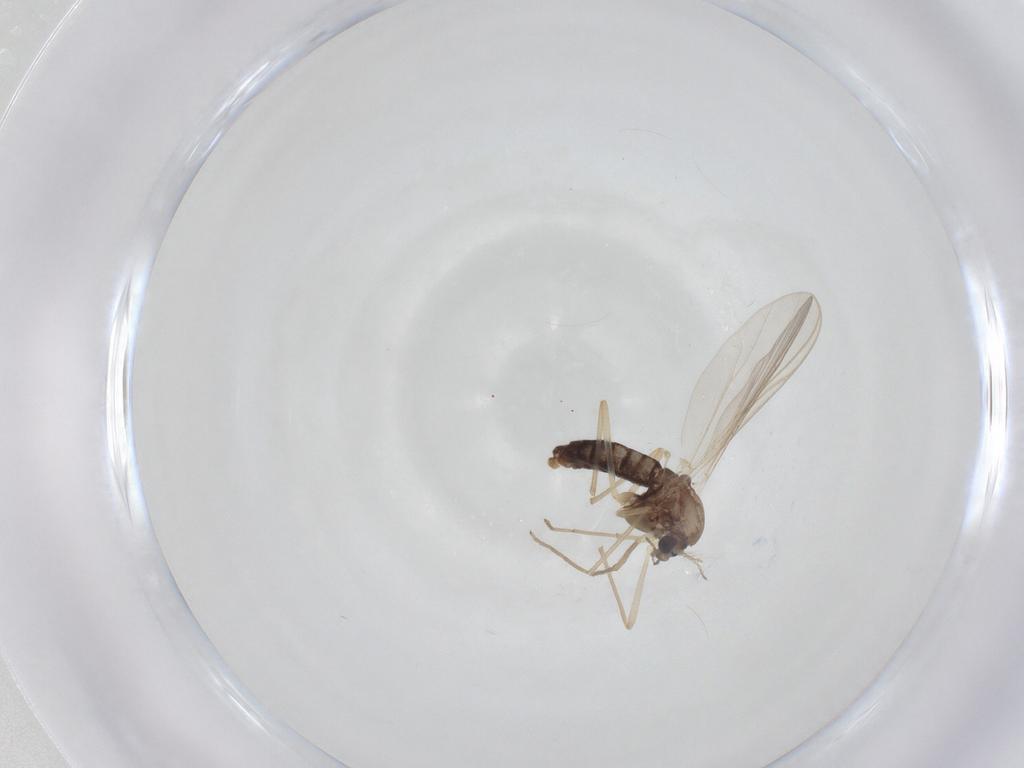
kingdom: Animalia
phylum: Arthropoda
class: Insecta
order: Diptera
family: Chironomidae
